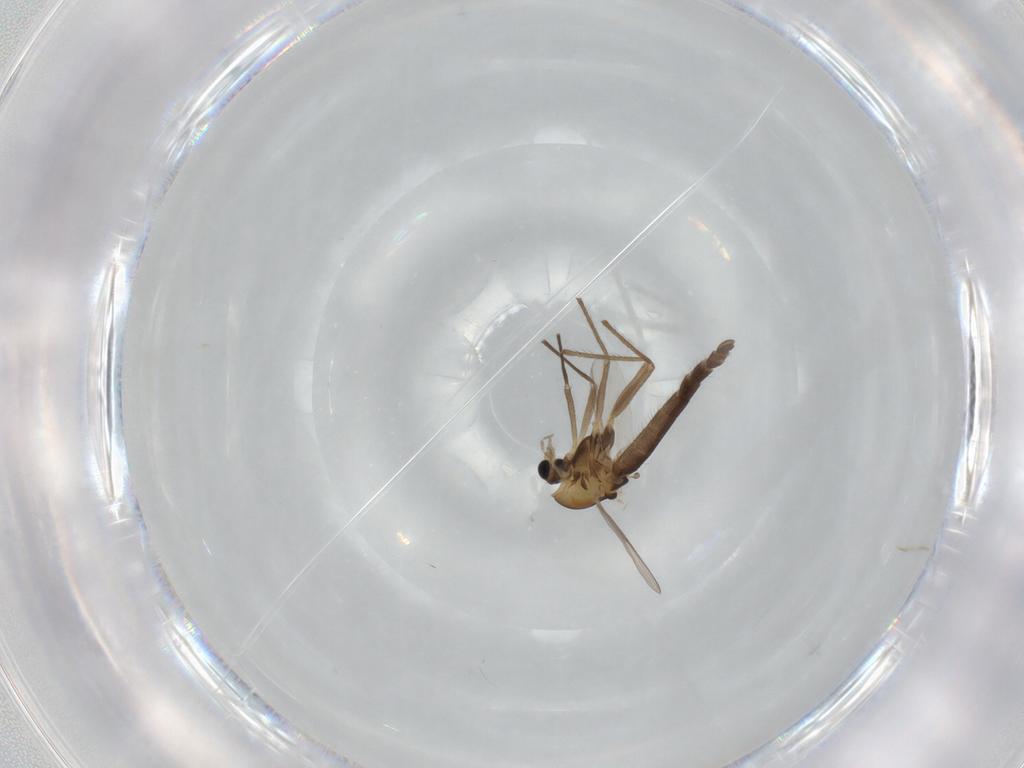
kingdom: Animalia
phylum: Arthropoda
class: Insecta
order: Diptera
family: Chironomidae
